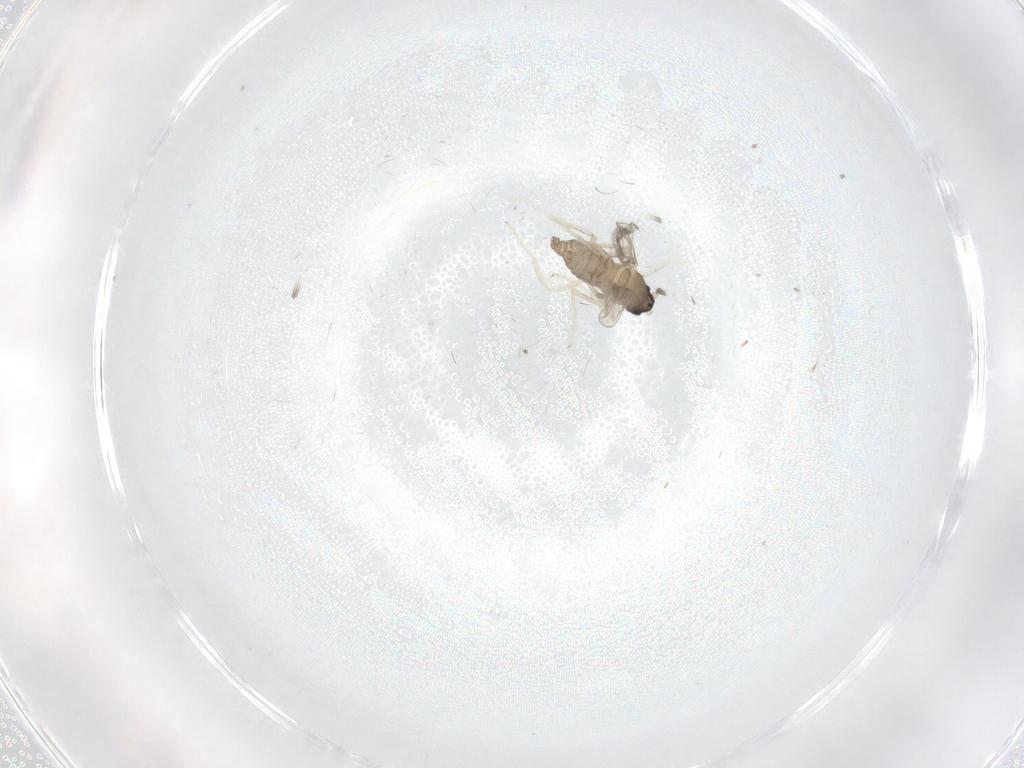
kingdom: Animalia
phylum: Arthropoda
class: Insecta
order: Diptera
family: Cecidomyiidae
